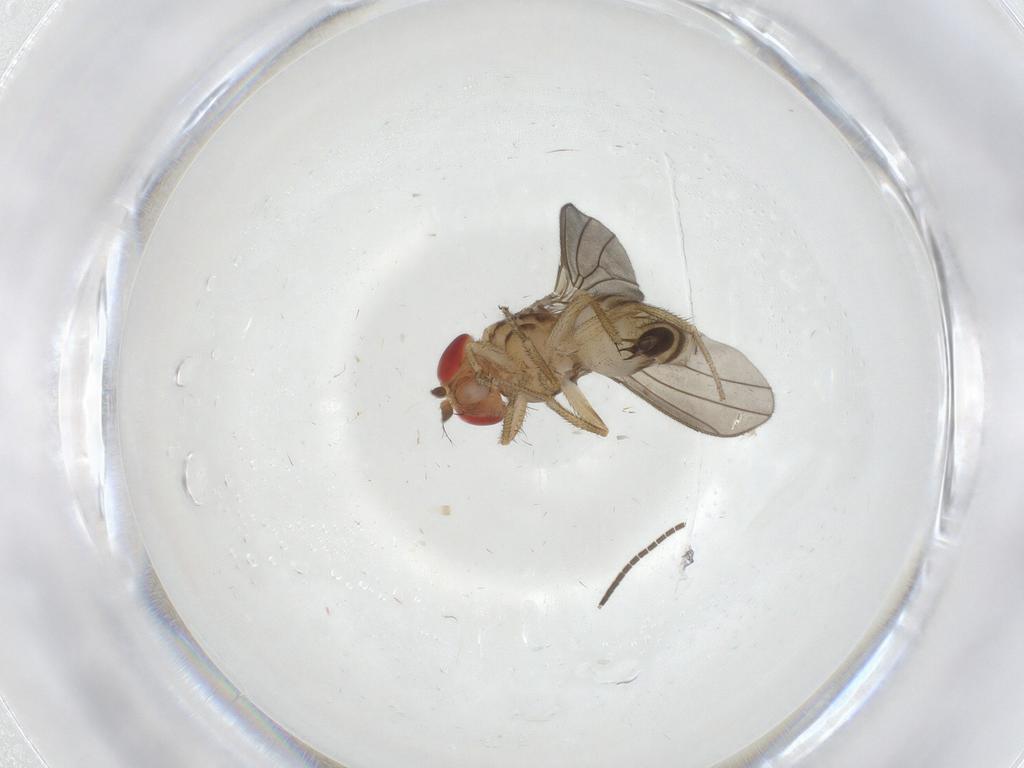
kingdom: Animalia
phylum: Arthropoda
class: Insecta
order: Diptera
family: Drosophilidae
